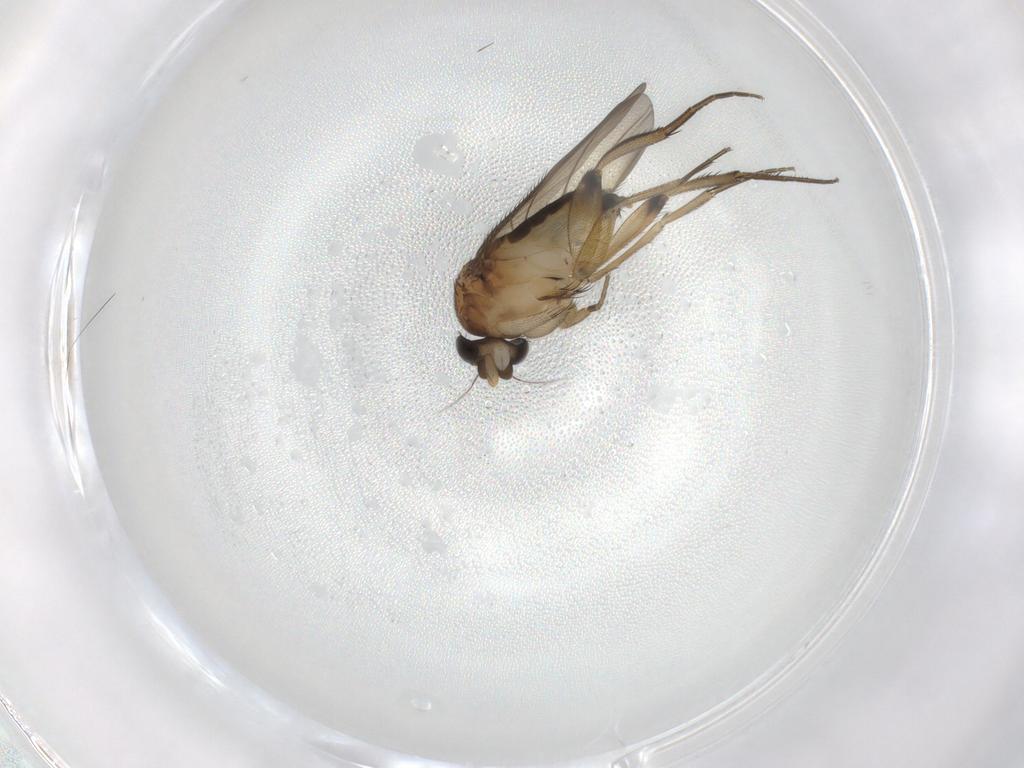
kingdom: Animalia
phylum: Arthropoda
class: Insecta
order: Diptera
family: Phoridae
